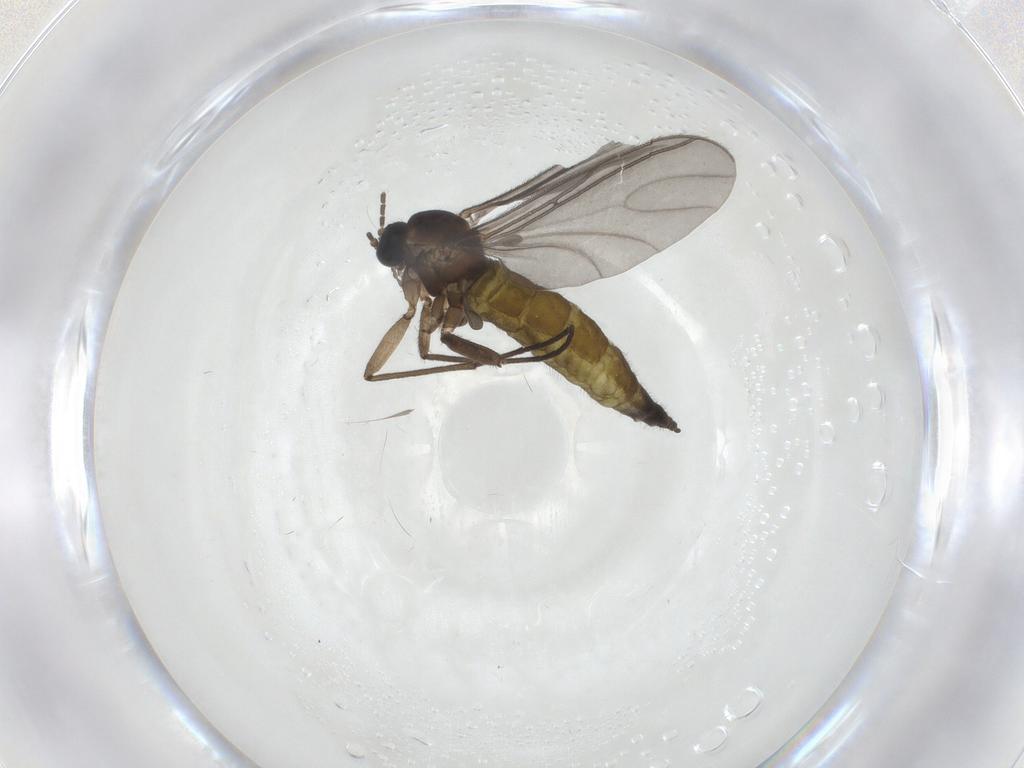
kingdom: Animalia
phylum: Arthropoda
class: Insecta
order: Diptera
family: Sciaridae
